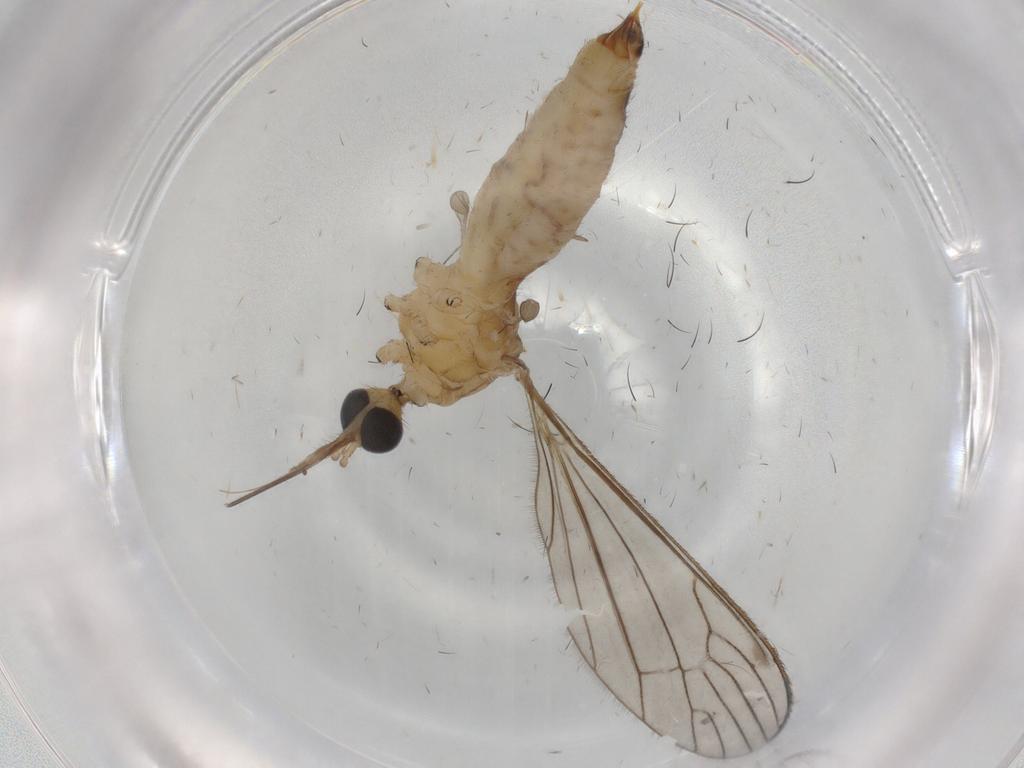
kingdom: Animalia
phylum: Arthropoda
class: Insecta
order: Diptera
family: Limoniidae
